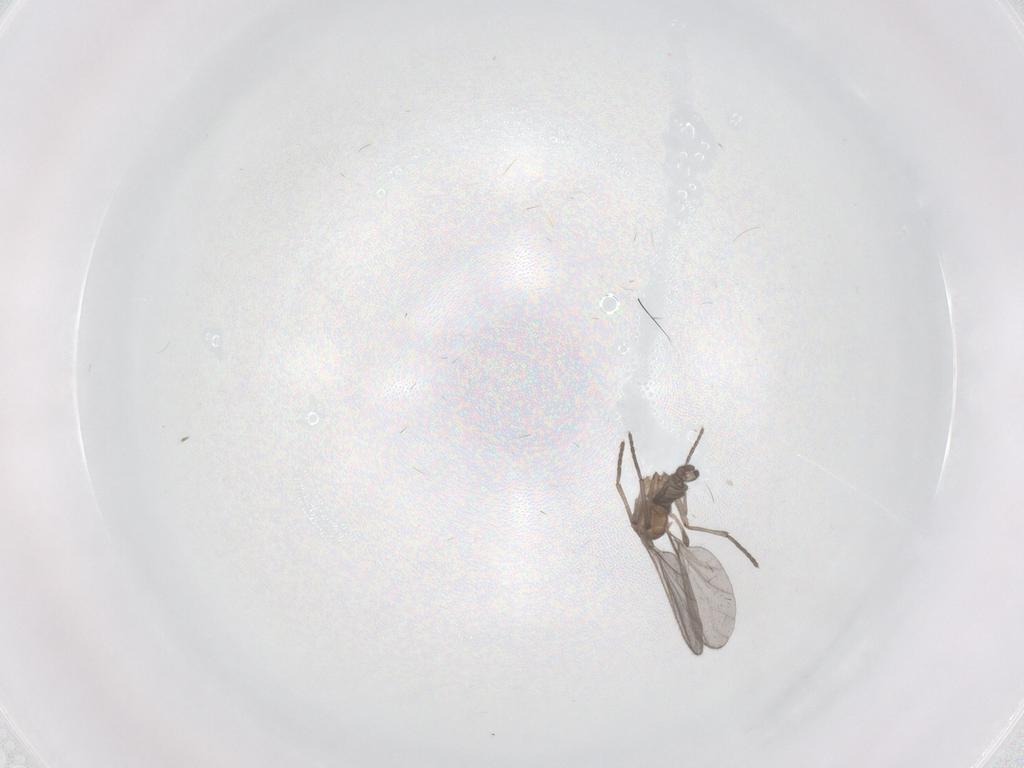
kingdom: Animalia
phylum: Arthropoda
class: Insecta
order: Diptera
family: Sciaridae
